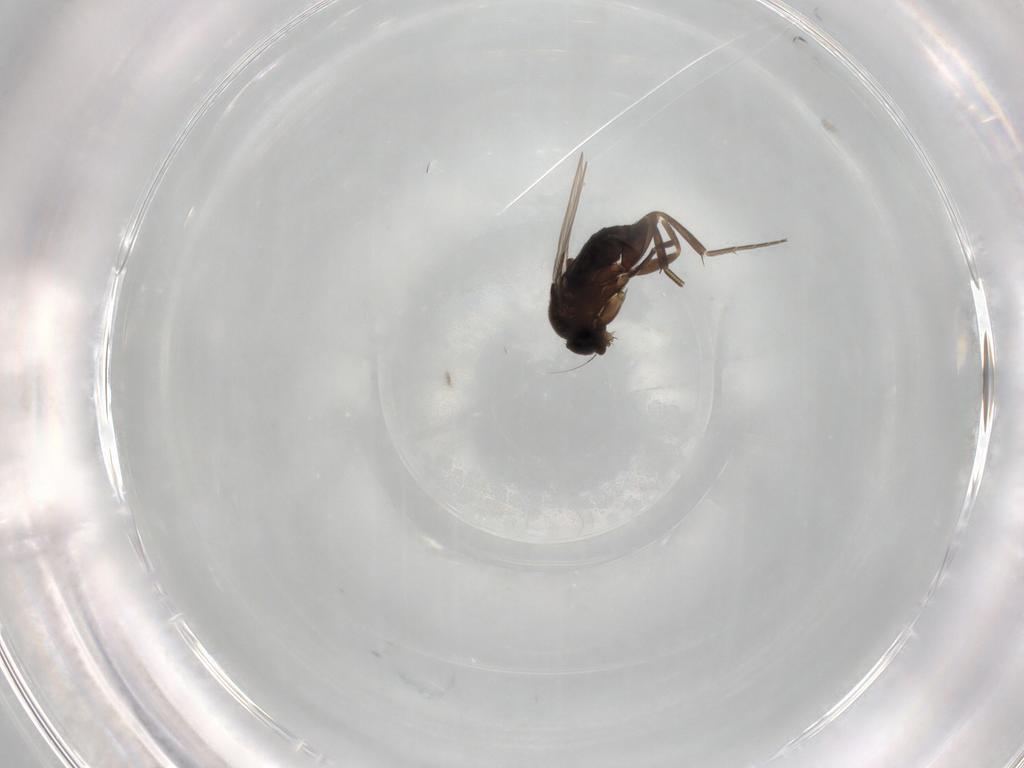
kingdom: Animalia
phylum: Arthropoda
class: Insecta
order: Diptera
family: Phoridae
